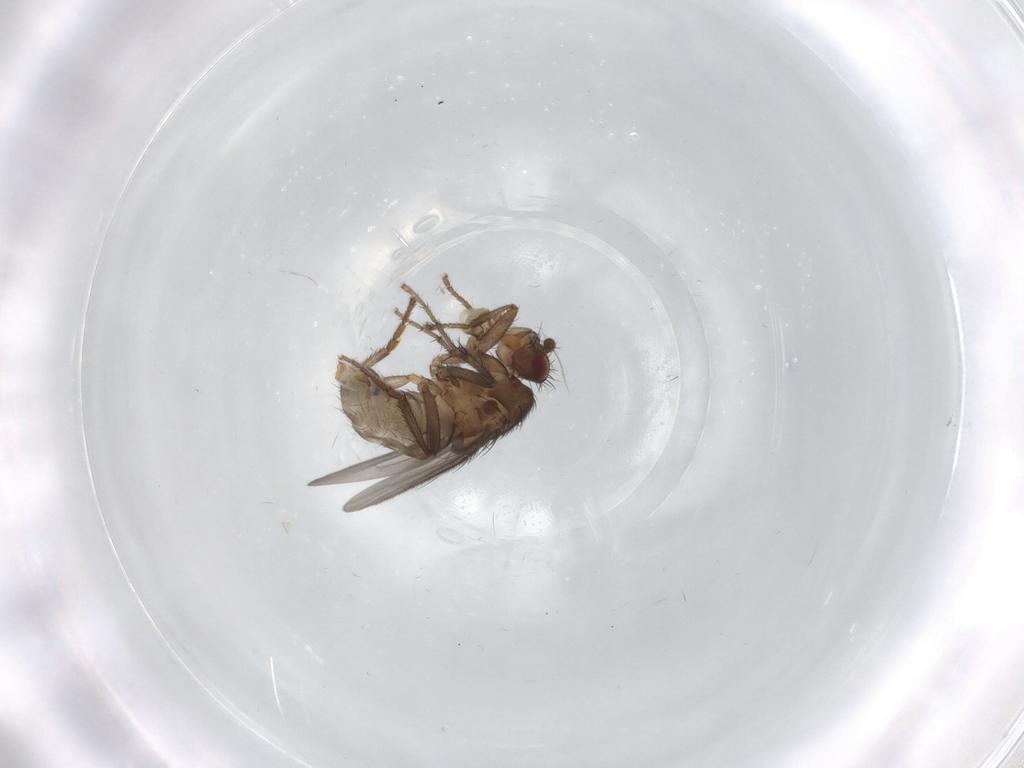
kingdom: Animalia
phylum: Arthropoda
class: Insecta
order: Diptera
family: Sphaeroceridae
